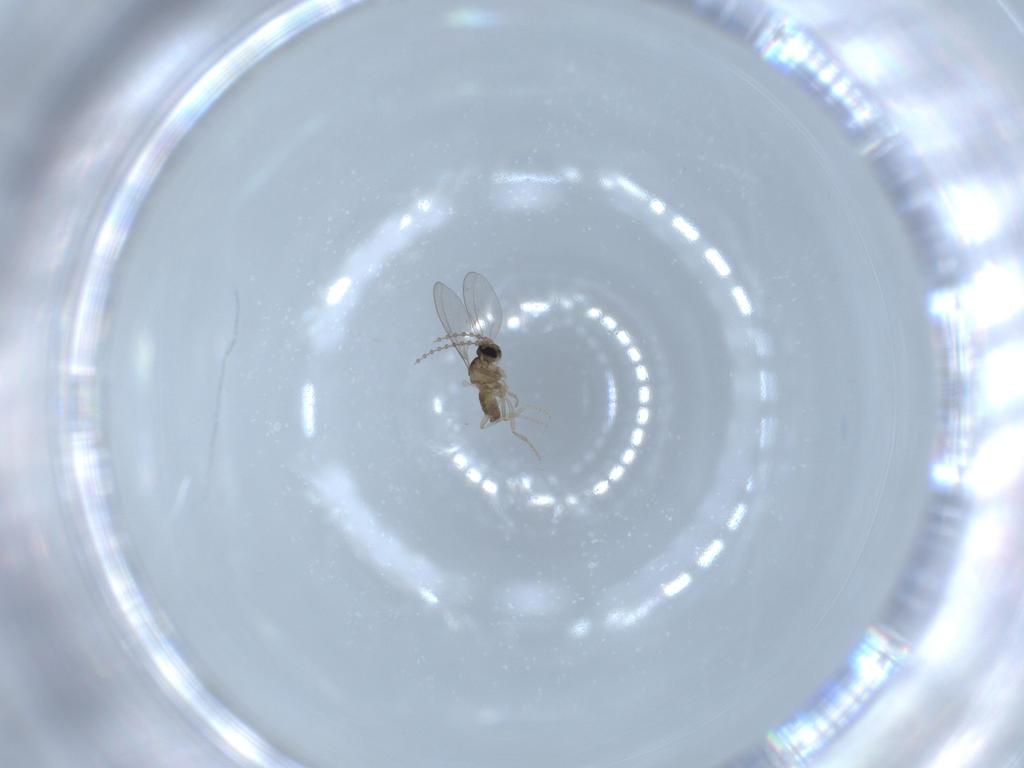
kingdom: Animalia
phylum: Arthropoda
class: Insecta
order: Diptera
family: Cecidomyiidae
